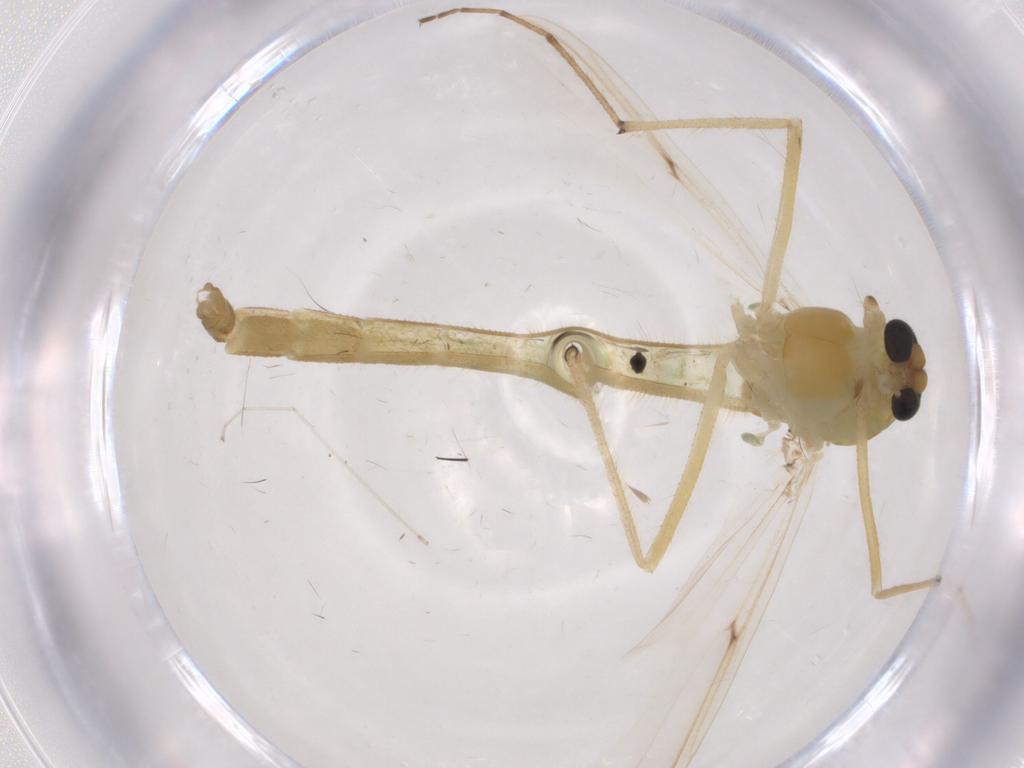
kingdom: Animalia
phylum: Arthropoda
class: Insecta
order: Diptera
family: Chironomidae
